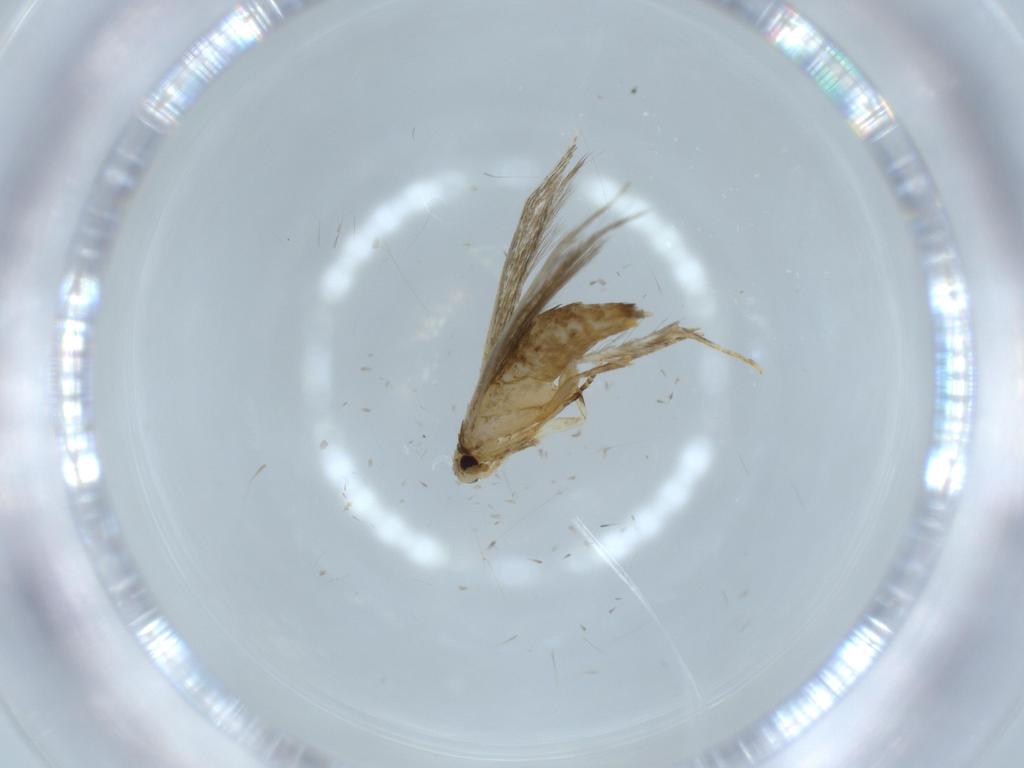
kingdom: Animalia
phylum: Arthropoda
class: Insecta
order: Lepidoptera
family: Tineidae
